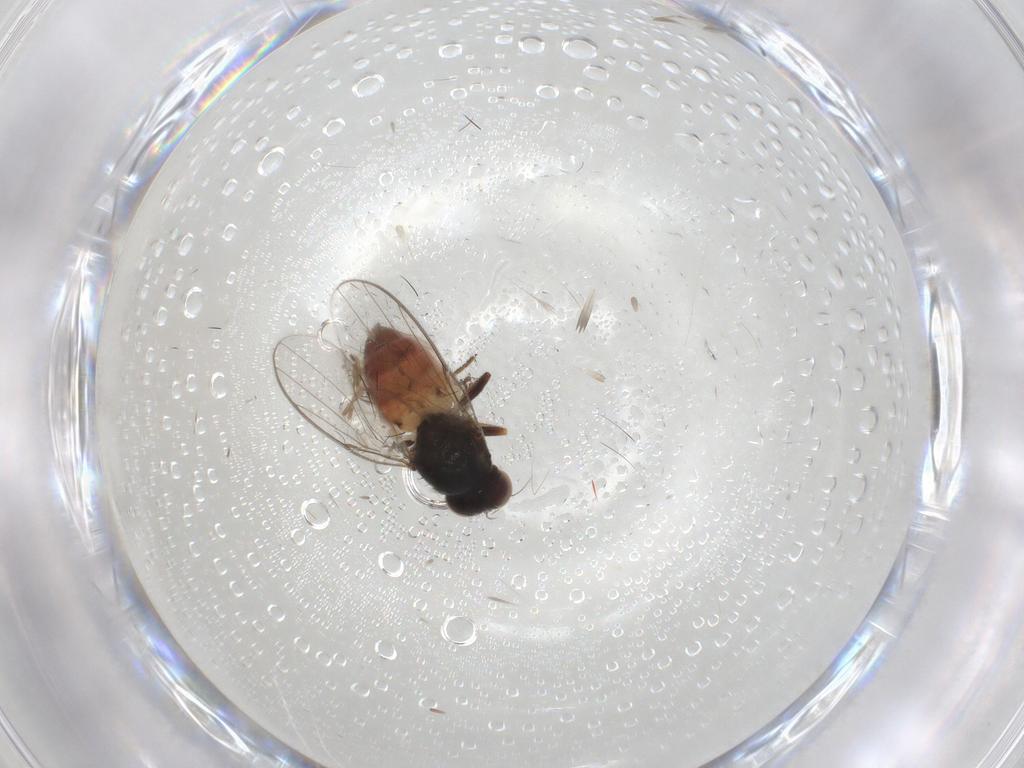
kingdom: Animalia
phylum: Arthropoda
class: Insecta
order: Diptera
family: Chloropidae
